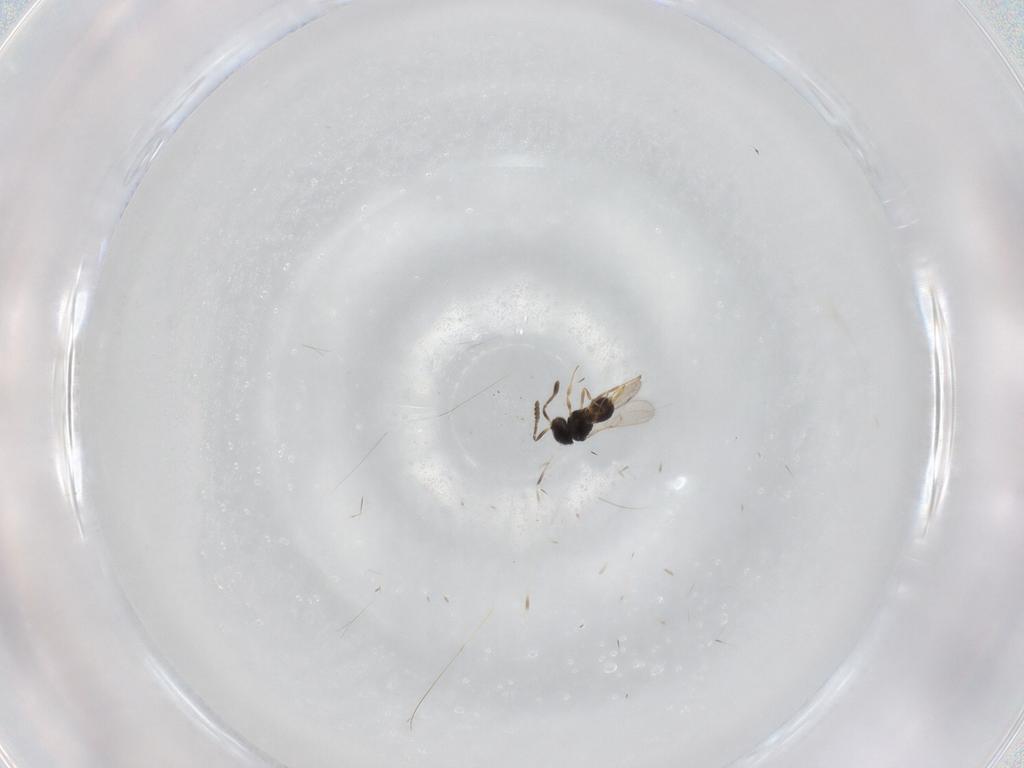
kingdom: Animalia
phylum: Arthropoda
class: Insecta
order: Hymenoptera
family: Scelionidae
